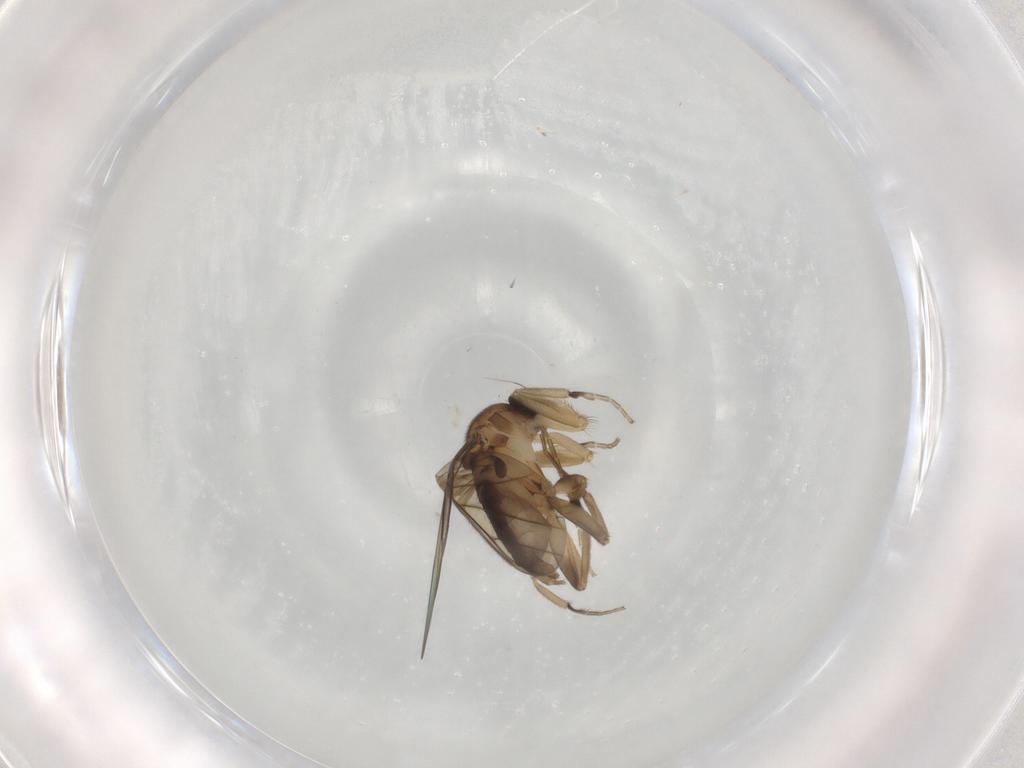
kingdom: Animalia
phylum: Arthropoda
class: Insecta
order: Diptera
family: Phoridae
